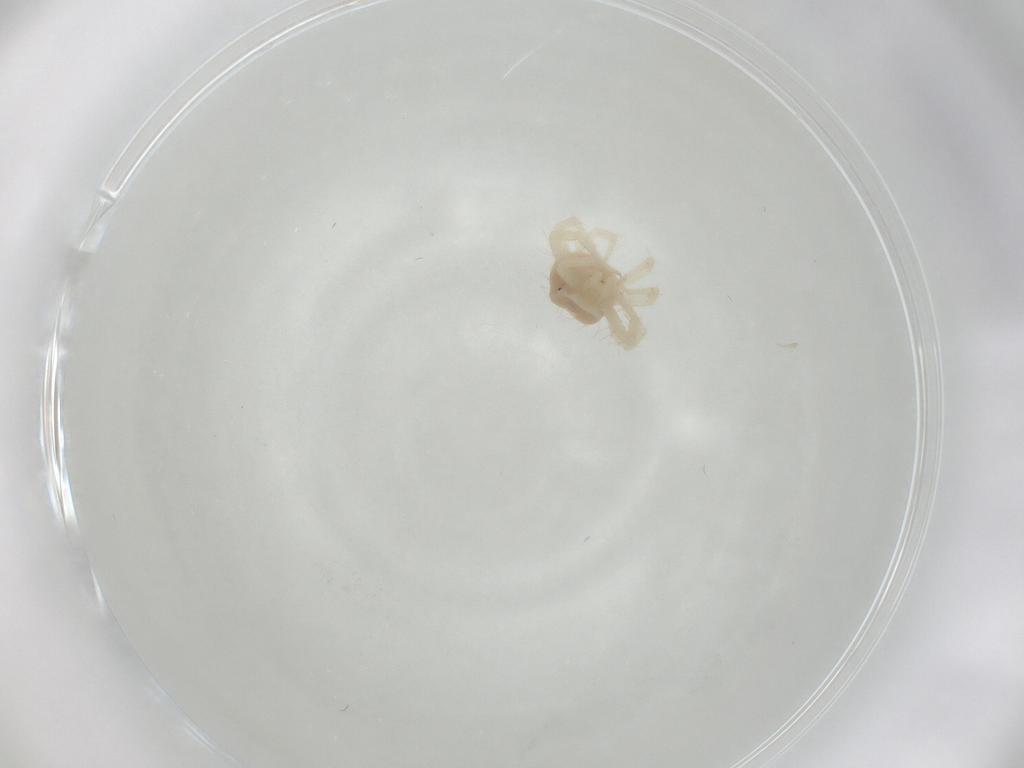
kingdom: Animalia
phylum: Arthropoda
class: Arachnida
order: Trombidiformes
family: Anystidae
